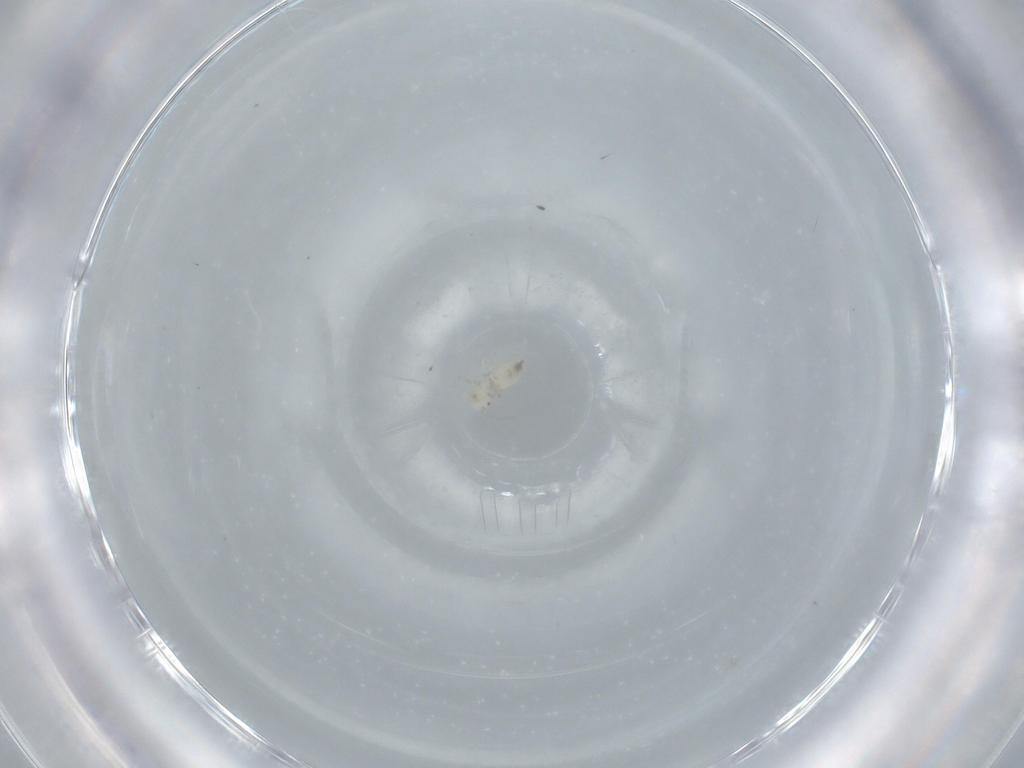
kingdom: Animalia
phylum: Arthropoda
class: Insecta
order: Psocodea
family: Caeciliusidae
